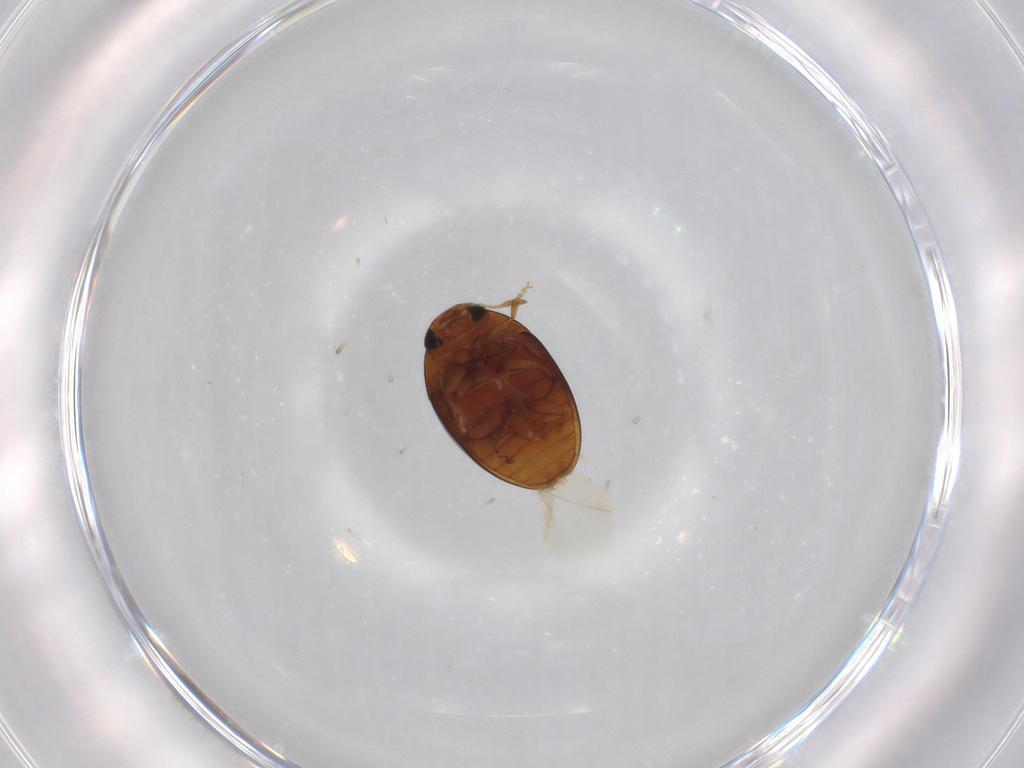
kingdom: Animalia
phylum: Arthropoda
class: Insecta
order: Coleoptera
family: Phalacridae
